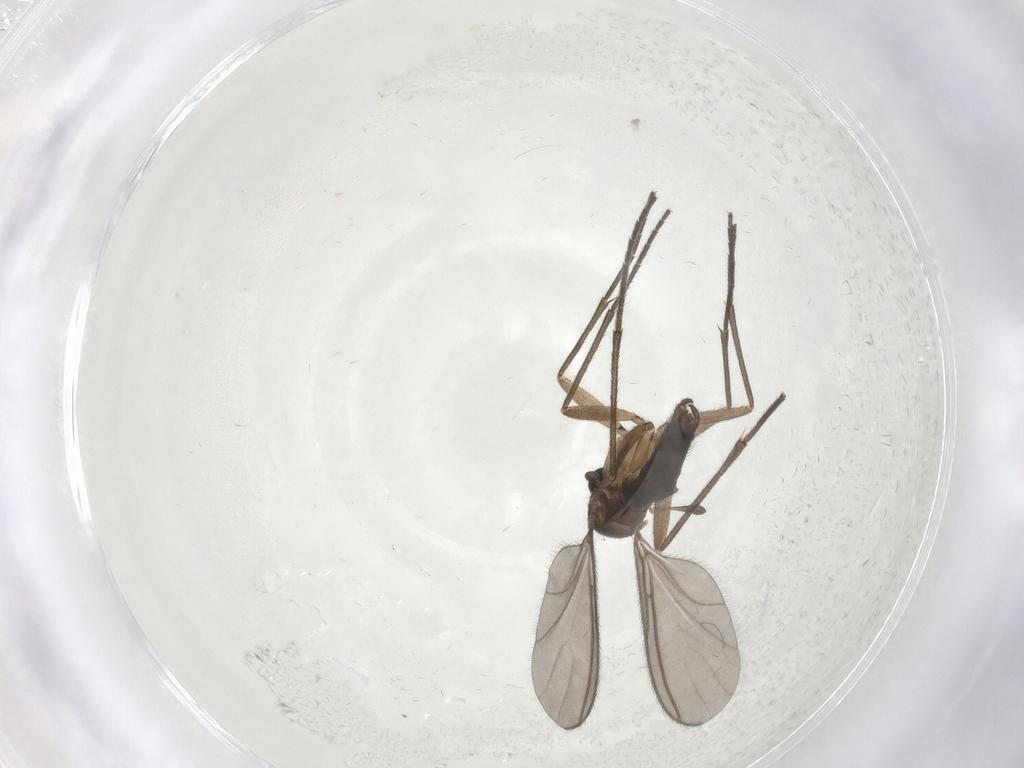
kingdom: Animalia
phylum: Arthropoda
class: Insecta
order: Diptera
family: Sciaridae
